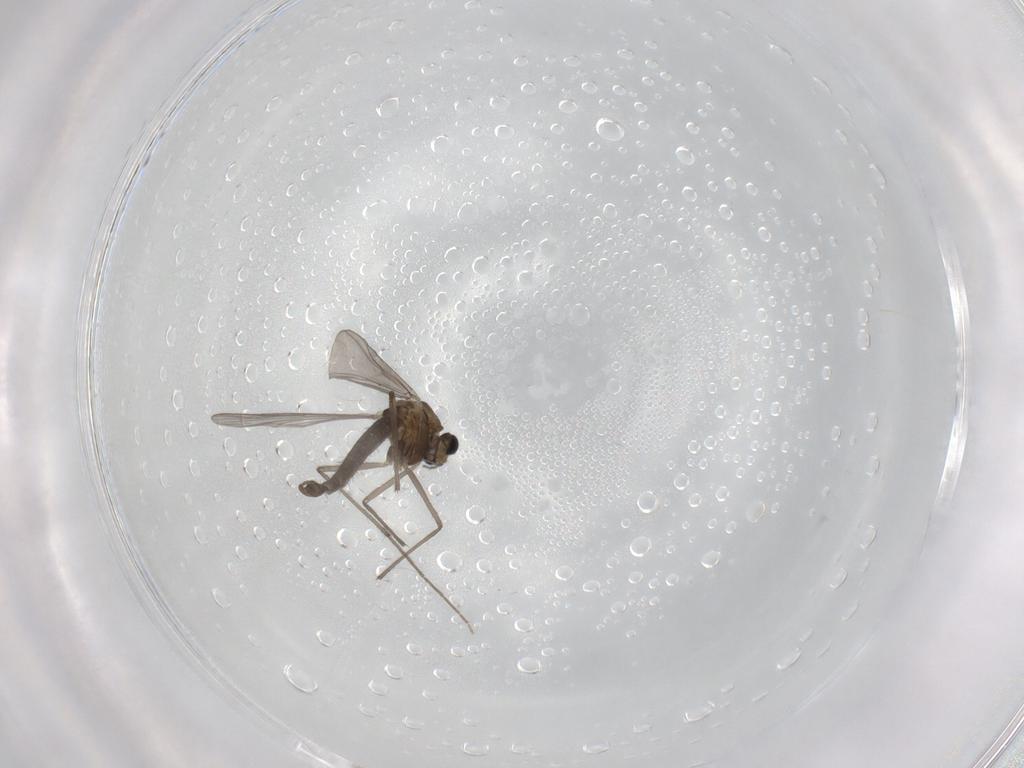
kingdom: Animalia
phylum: Arthropoda
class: Insecta
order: Diptera
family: Chironomidae
